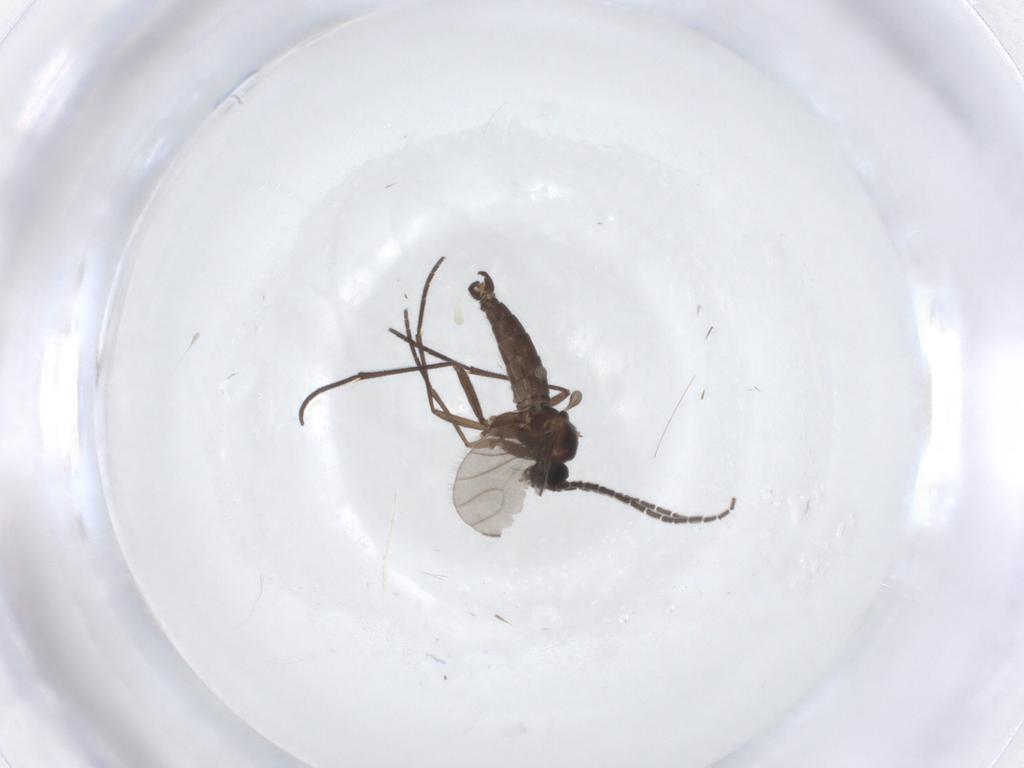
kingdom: Animalia
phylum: Arthropoda
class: Insecta
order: Diptera
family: Sciaridae
